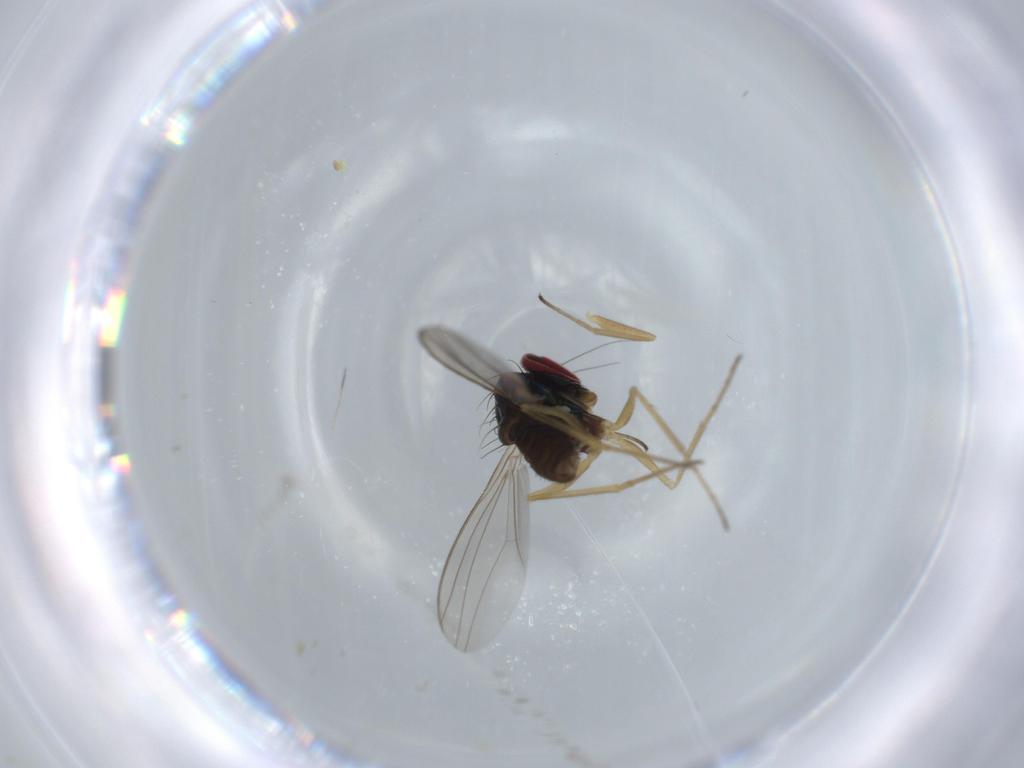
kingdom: Animalia
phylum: Arthropoda
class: Insecta
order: Diptera
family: Dolichopodidae
